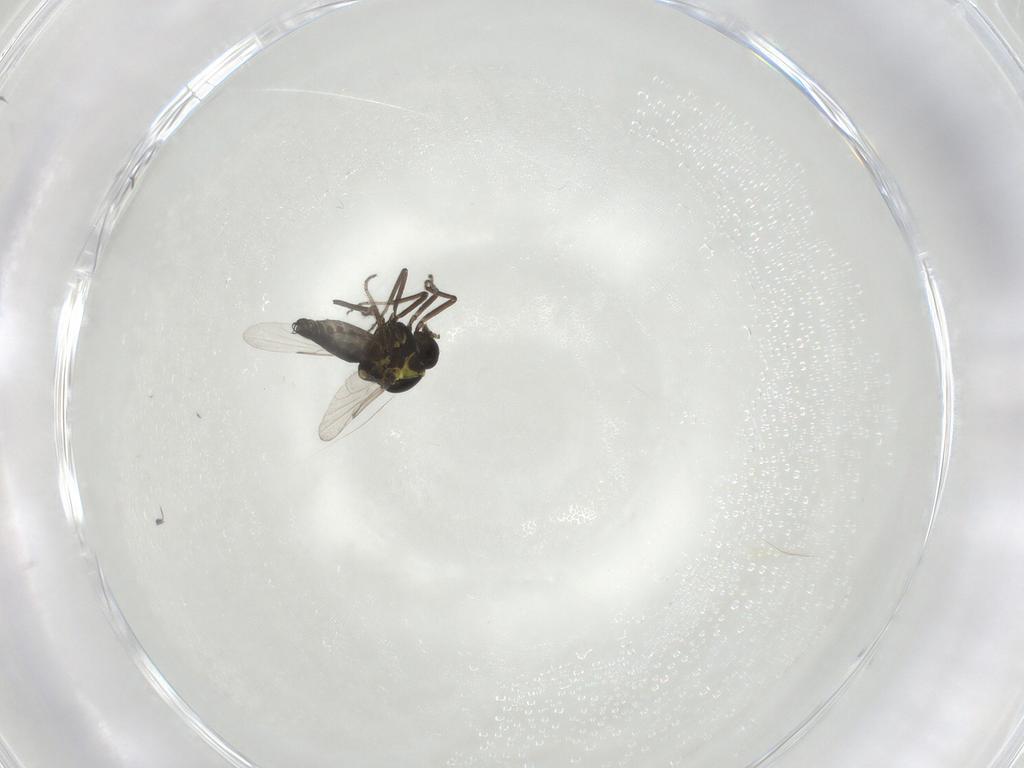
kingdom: Animalia
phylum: Arthropoda
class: Insecta
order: Diptera
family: Ceratopogonidae
